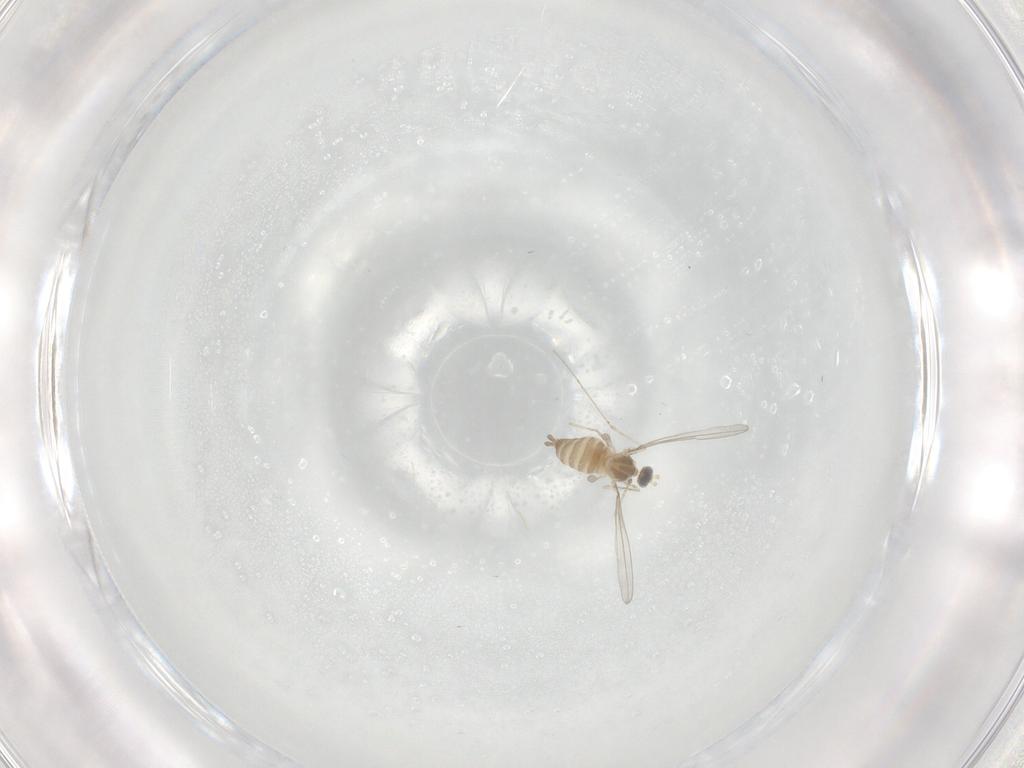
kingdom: Animalia
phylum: Arthropoda
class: Insecta
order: Diptera
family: Cecidomyiidae
